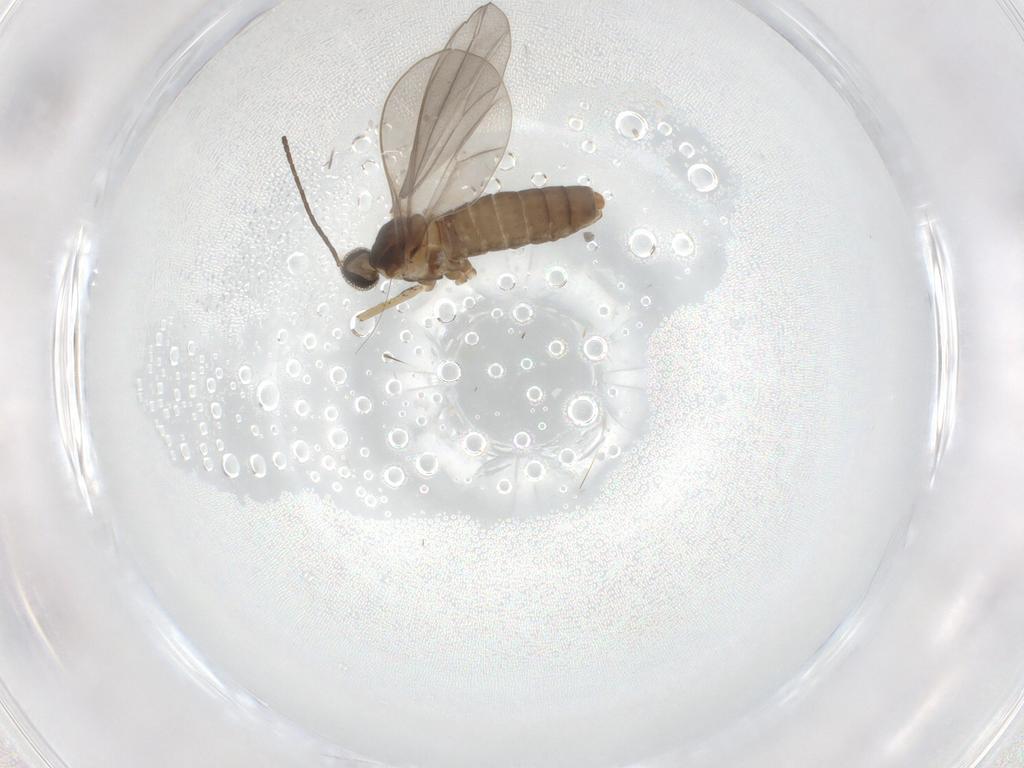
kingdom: Animalia
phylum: Arthropoda
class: Insecta
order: Diptera
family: Cecidomyiidae
